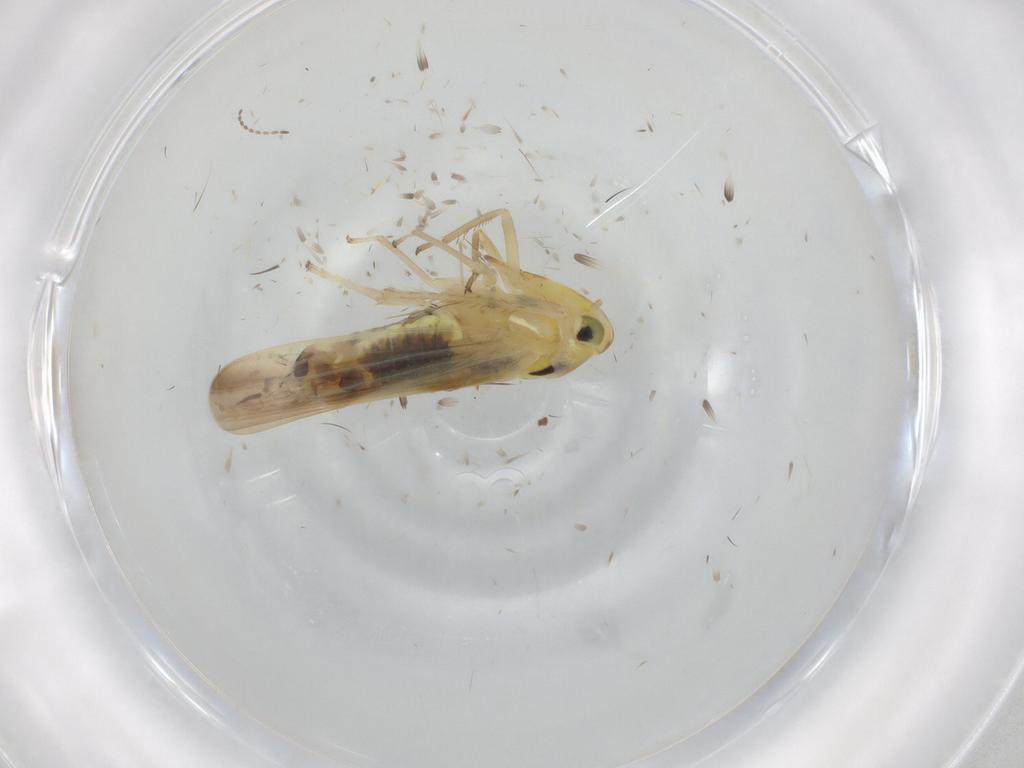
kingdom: Animalia
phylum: Arthropoda
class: Insecta
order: Hemiptera
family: Cicadellidae
